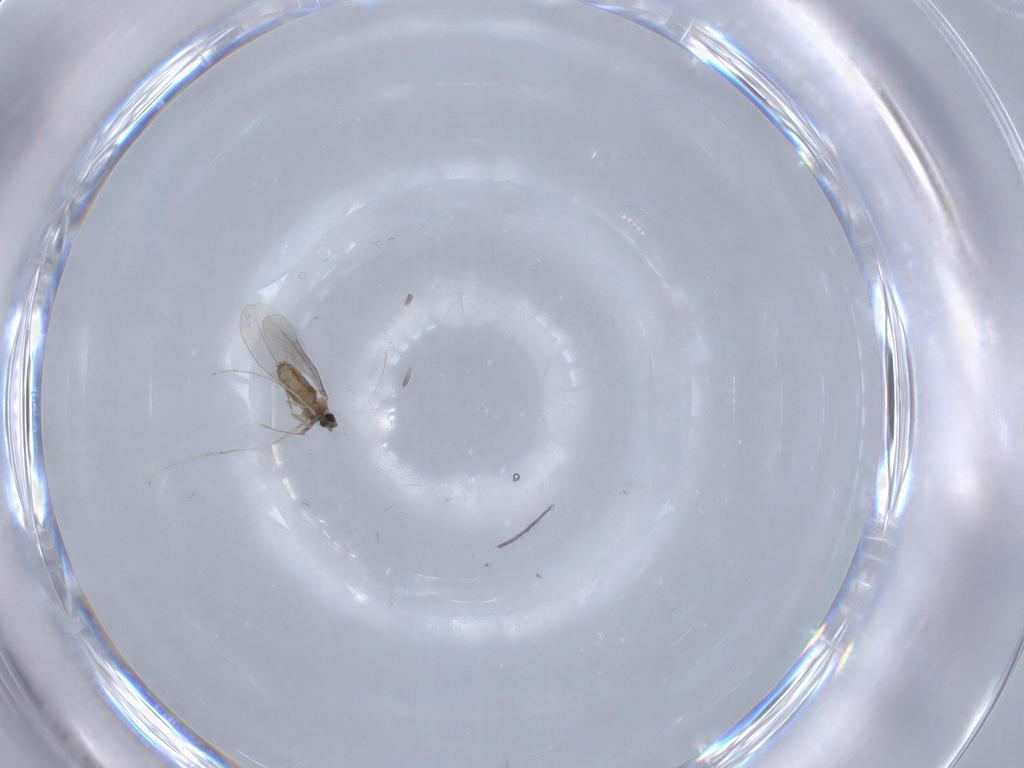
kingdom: Animalia
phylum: Arthropoda
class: Insecta
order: Diptera
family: Cecidomyiidae
